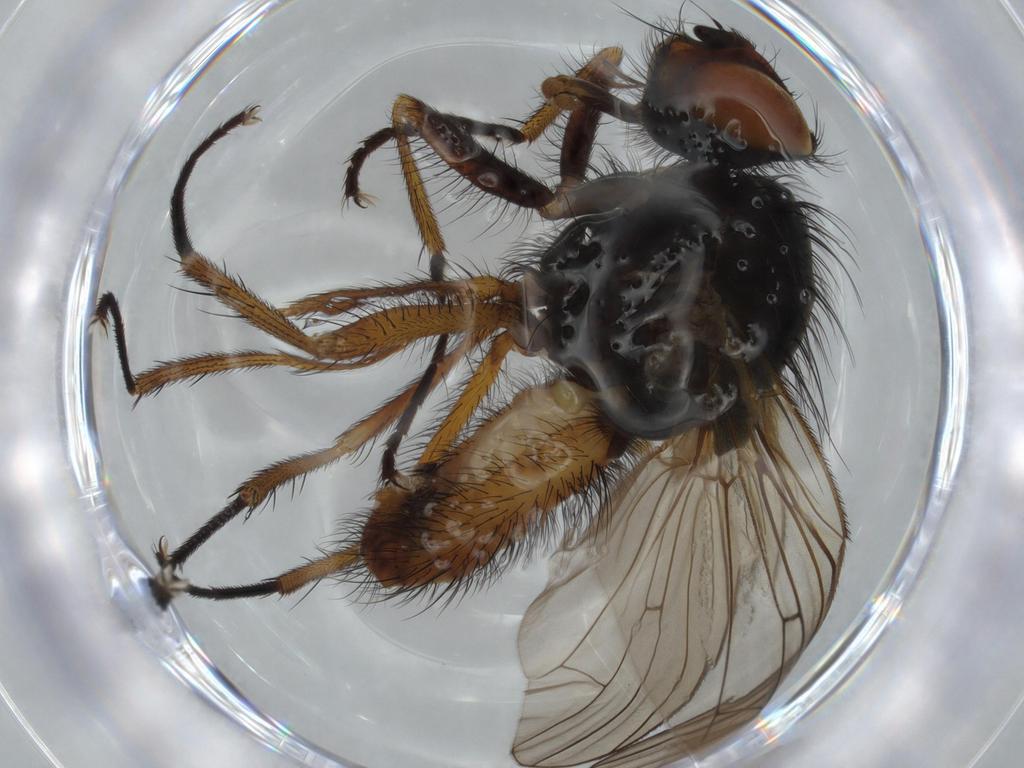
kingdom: Animalia
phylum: Arthropoda
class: Insecta
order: Diptera
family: Anthomyiidae
